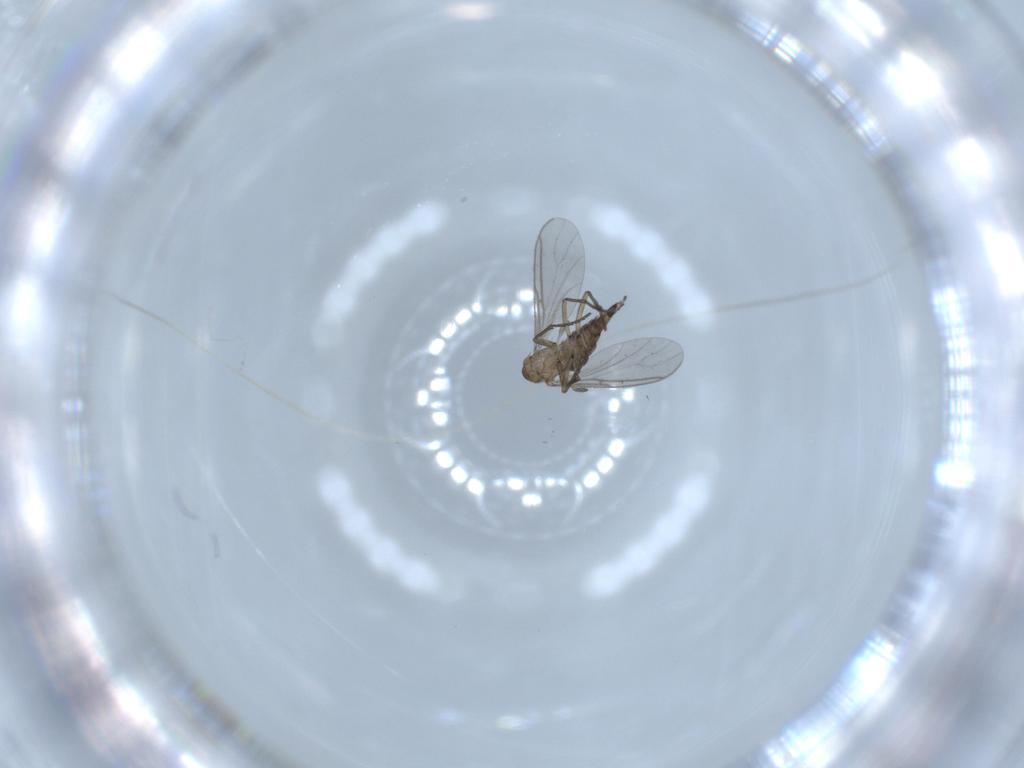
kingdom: Animalia
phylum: Arthropoda
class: Insecta
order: Diptera
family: Sciaridae
